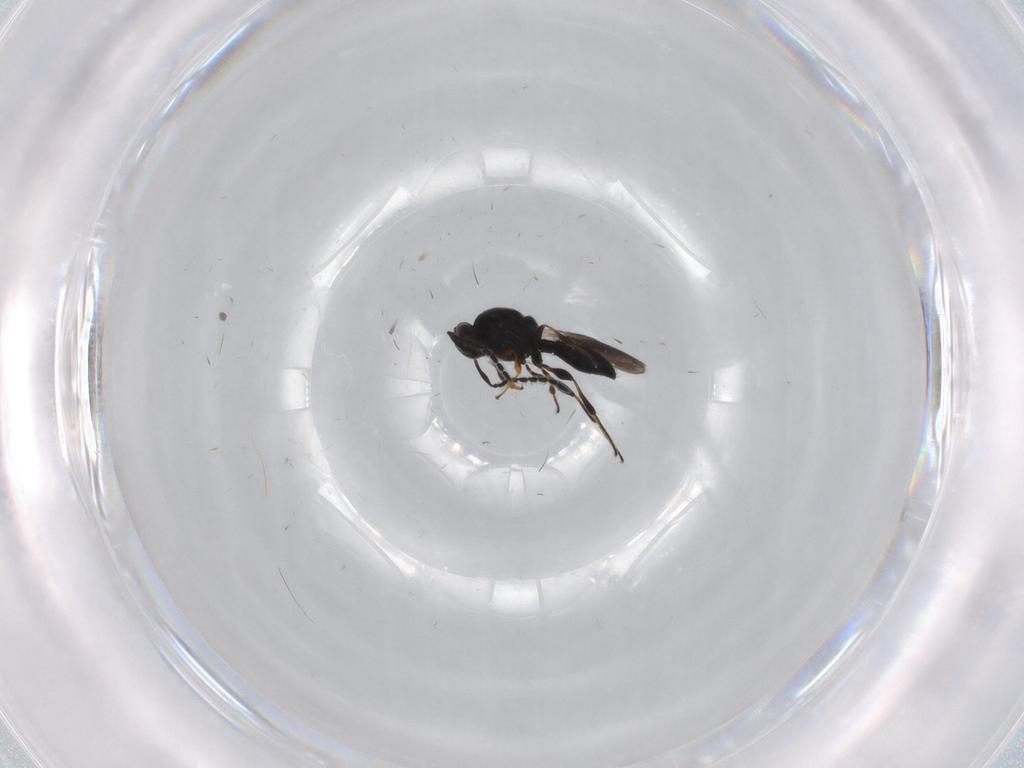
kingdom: Animalia
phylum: Arthropoda
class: Insecta
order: Hymenoptera
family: Platygastridae
